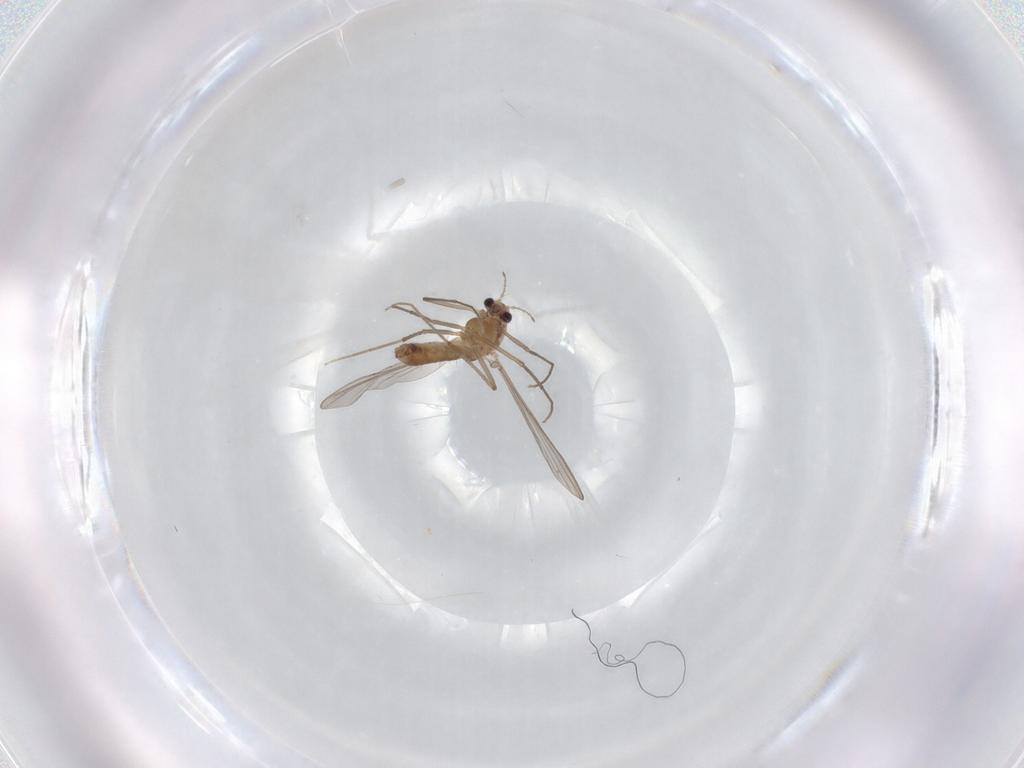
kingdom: Animalia
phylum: Arthropoda
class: Insecta
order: Diptera
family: Chironomidae
